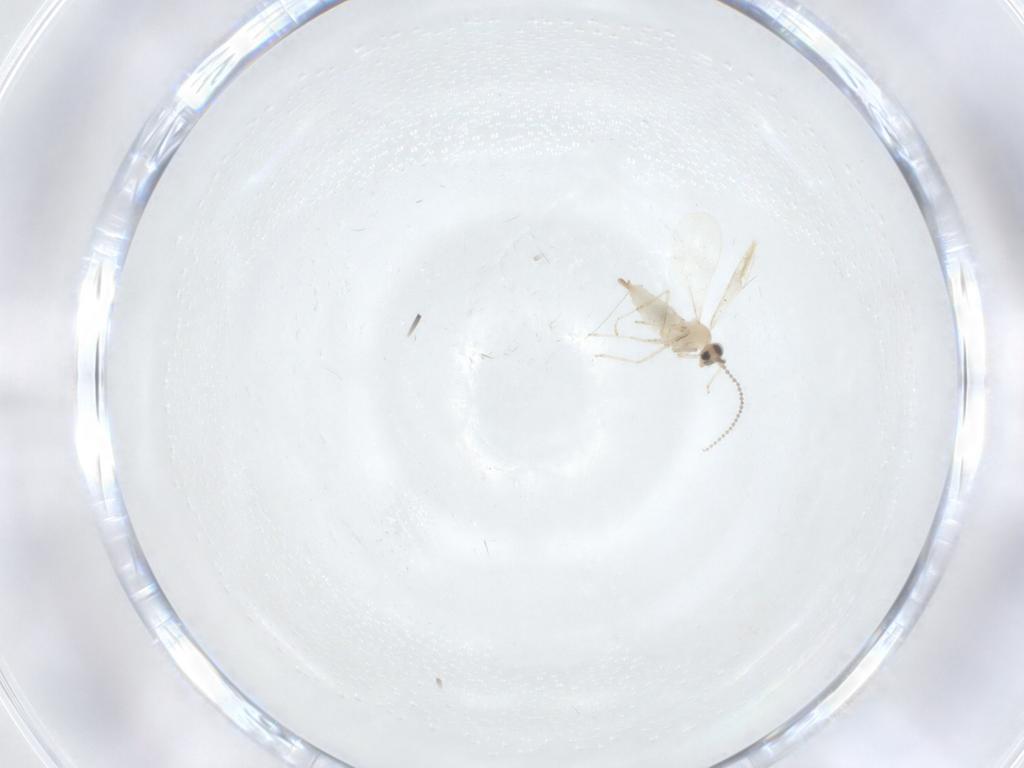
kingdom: Animalia
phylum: Arthropoda
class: Insecta
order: Diptera
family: Cecidomyiidae
